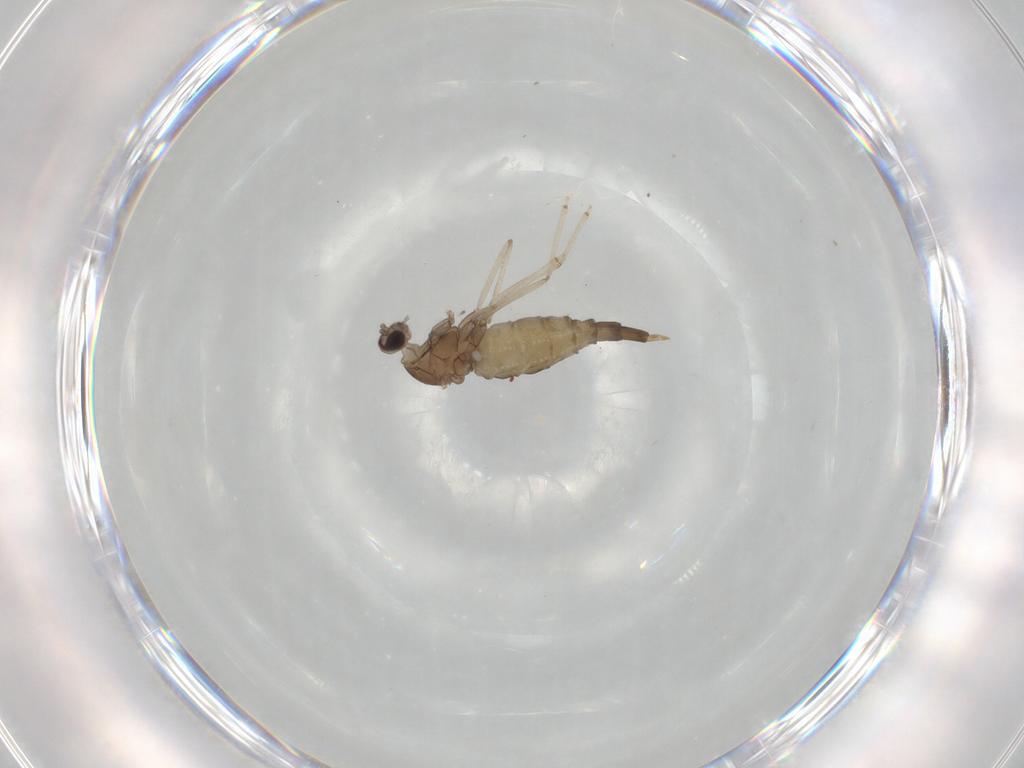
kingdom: Animalia
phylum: Arthropoda
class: Insecta
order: Diptera
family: Cecidomyiidae
